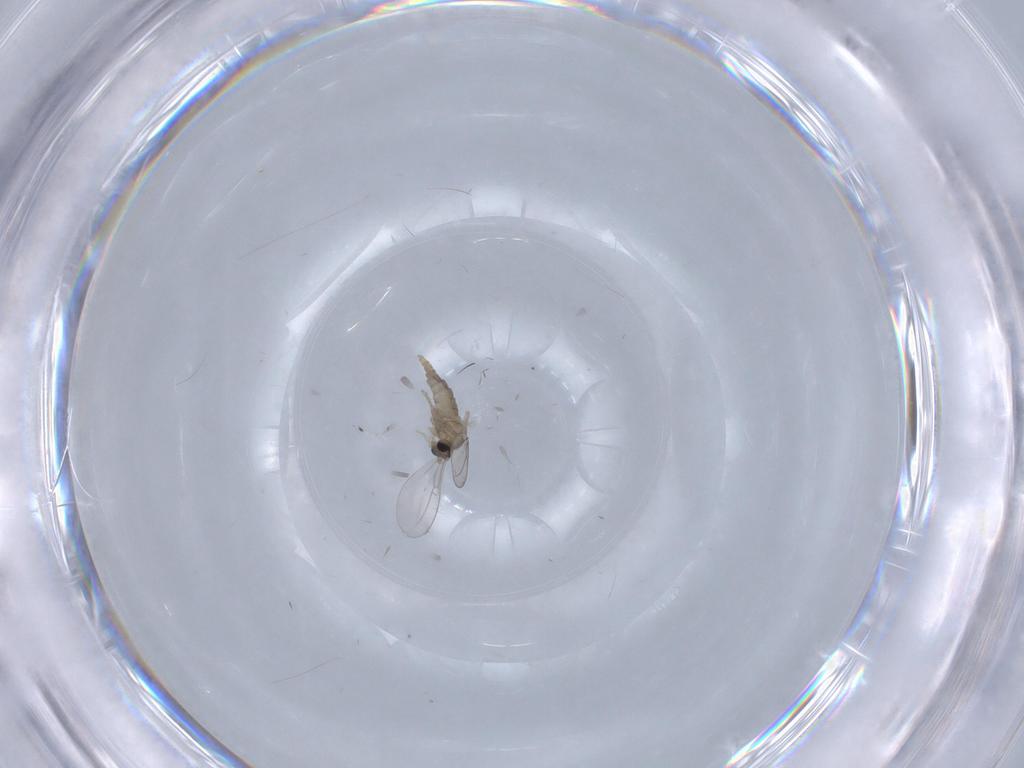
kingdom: Animalia
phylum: Arthropoda
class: Insecta
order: Diptera
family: Cecidomyiidae
